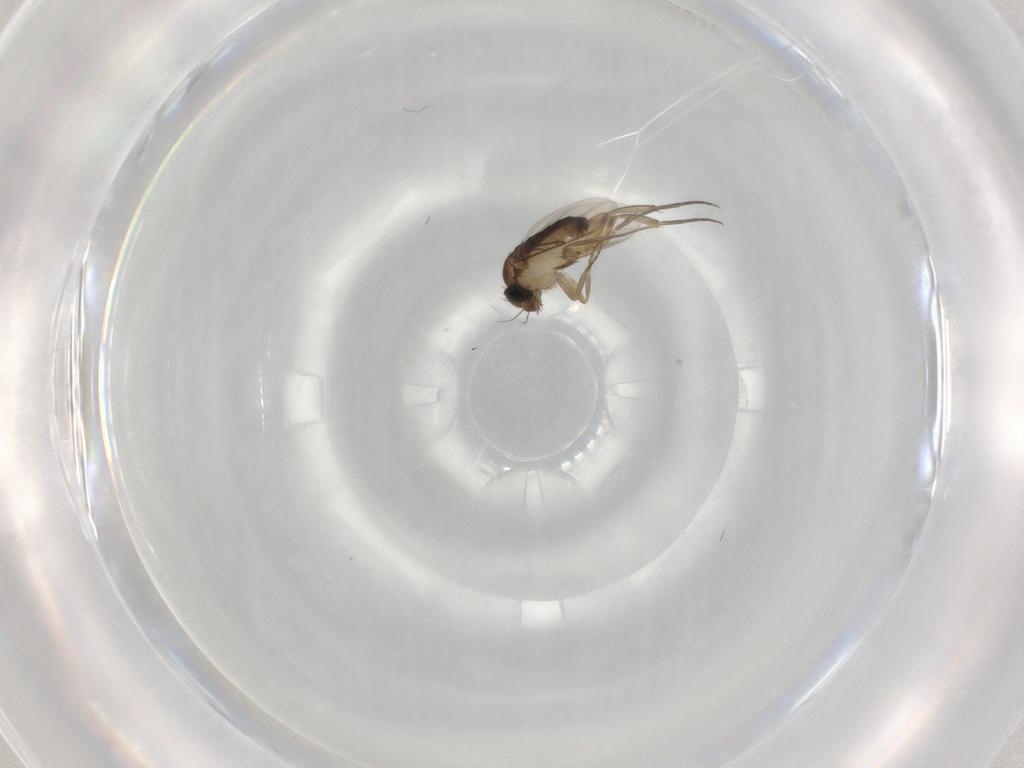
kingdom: Animalia
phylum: Arthropoda
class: Insecta
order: Diptera
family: Phoridae
